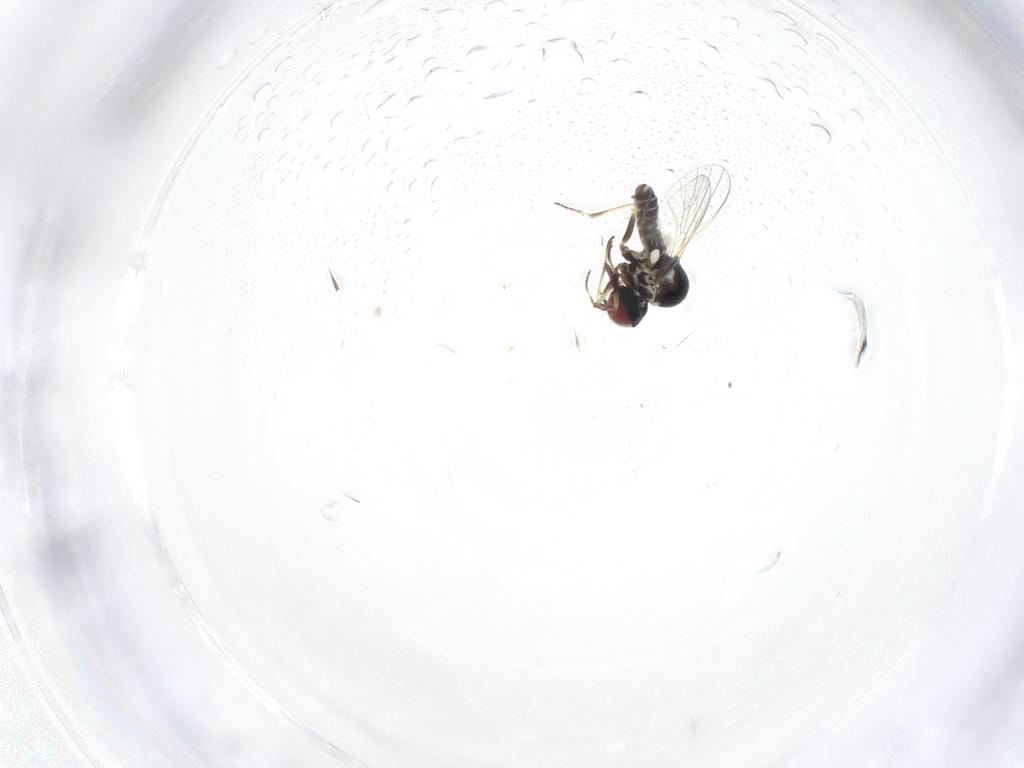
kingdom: Animalia
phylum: Arthropoda
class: Insecta
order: Diptera
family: Bombyliidae
